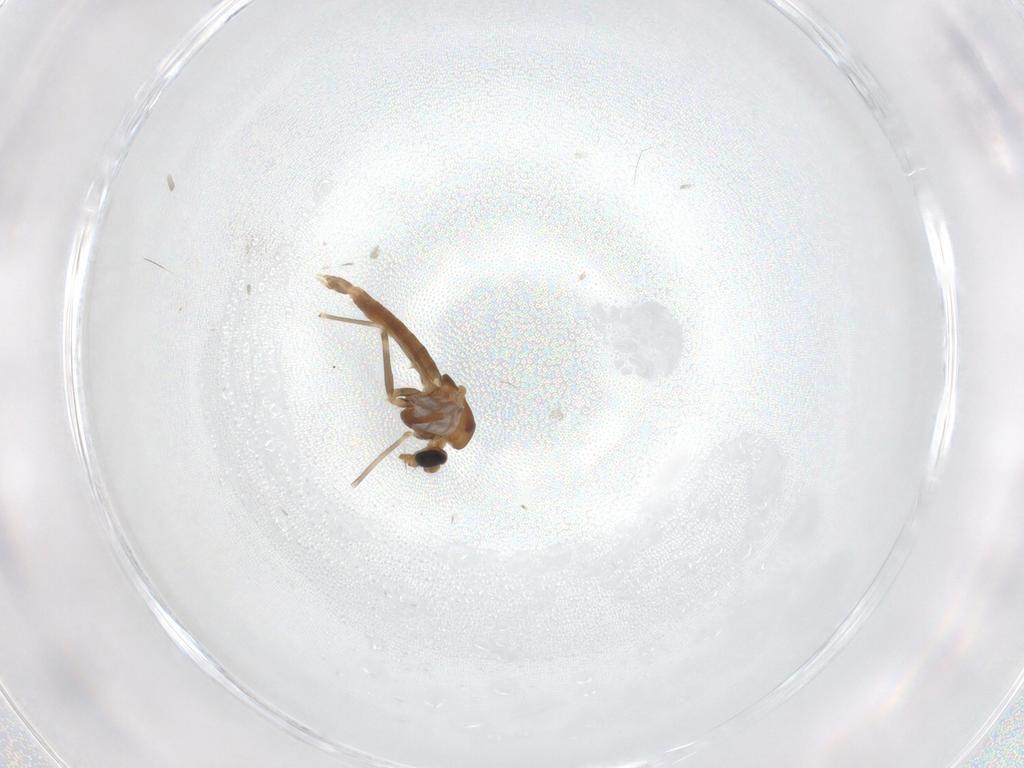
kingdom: Animalia
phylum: Arthropoda
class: Insecta
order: Diptera
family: Chironomidae
